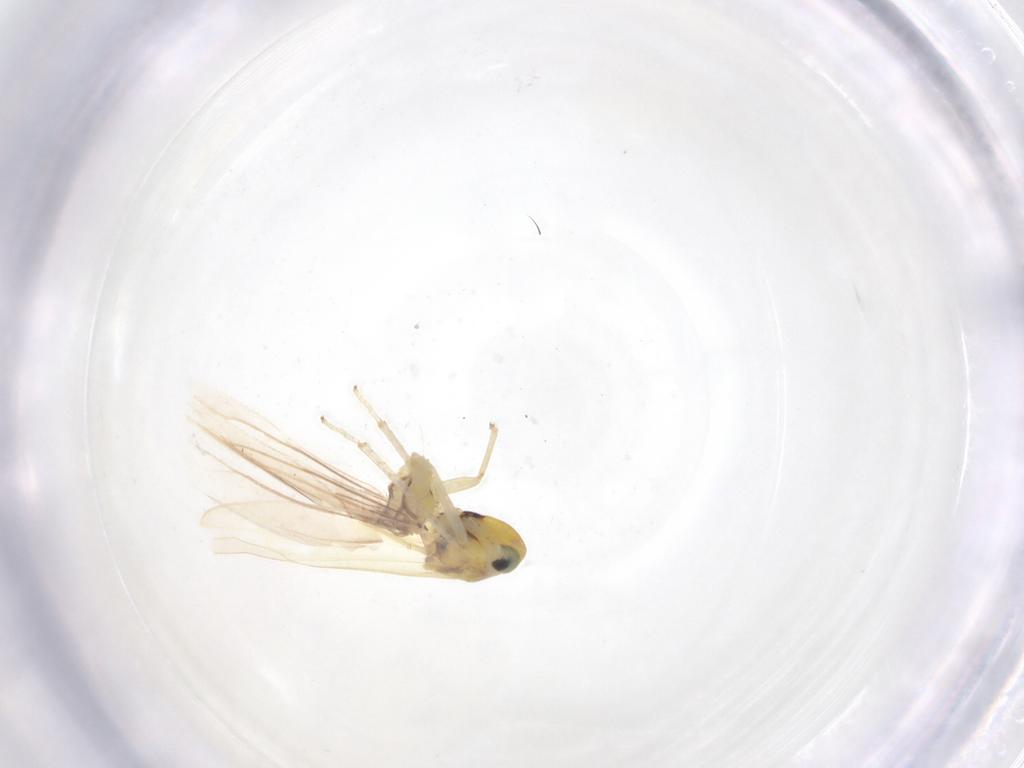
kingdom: Animalia
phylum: Arthropoda
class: Insecta
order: Hemiptera
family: Cicadellidae
